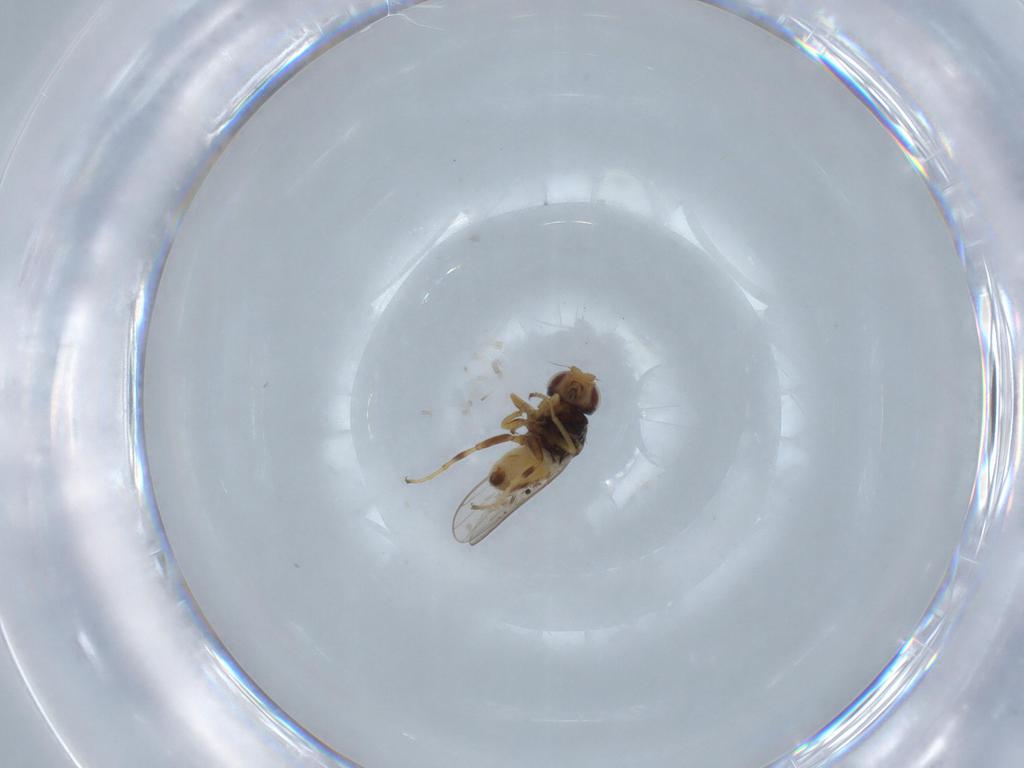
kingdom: Animalia
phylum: Arthropoda
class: Insecta
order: Diptera
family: Chloropidae
